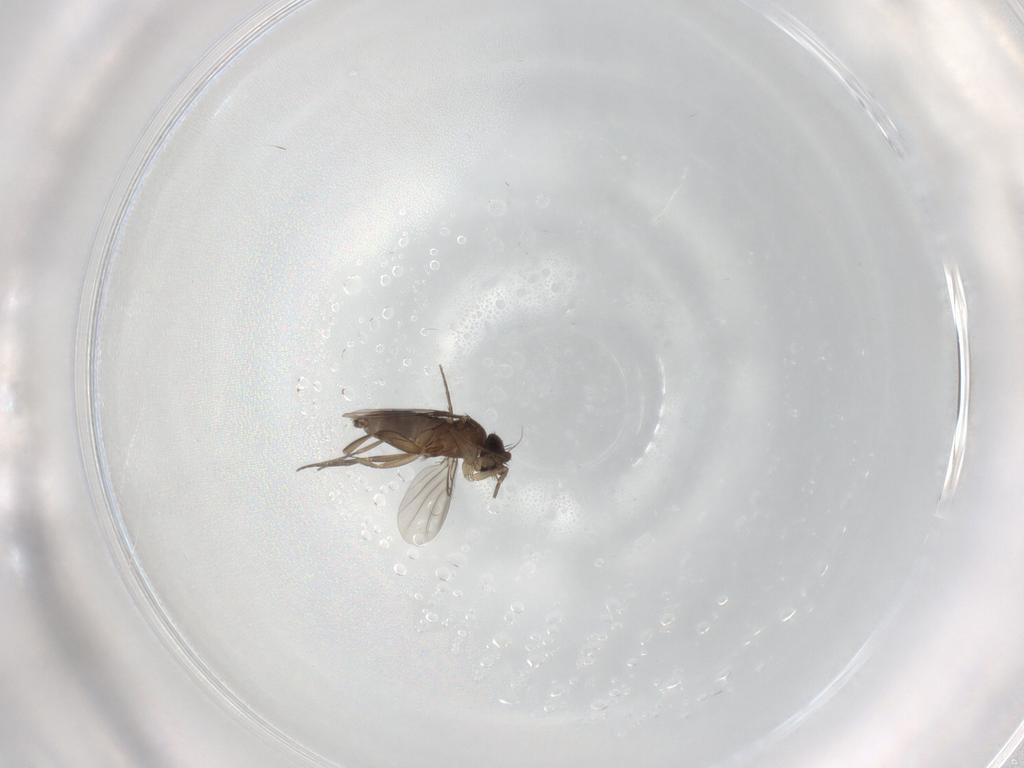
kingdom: Animalia
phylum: Arthropoda
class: Insecta
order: Diptera
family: Phoridae
